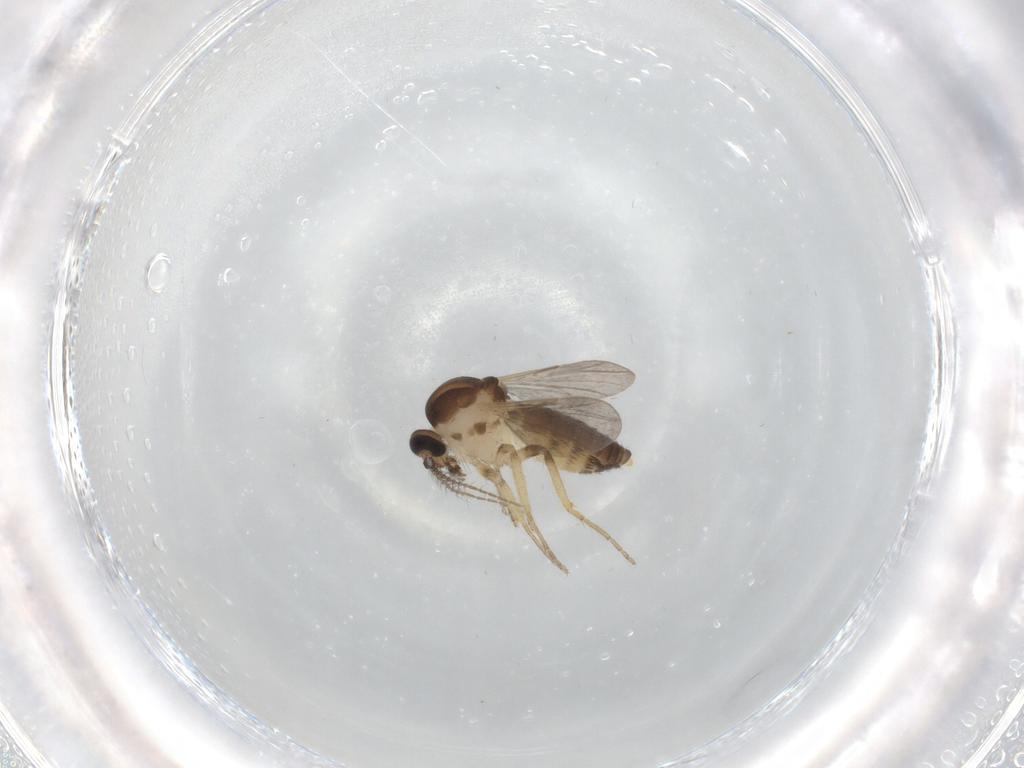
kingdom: Animalia
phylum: Arthropoda
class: Insecta
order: Diptera
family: Ceratopogonidae
